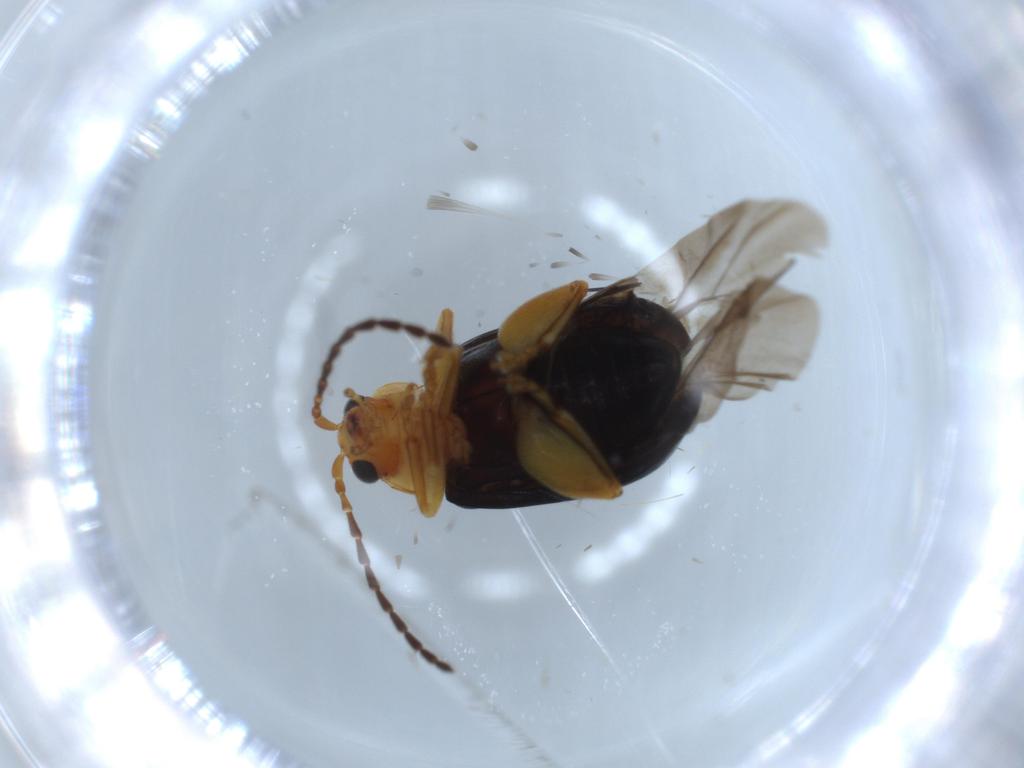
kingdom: Animalia
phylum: Arthropoda
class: Insecta
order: Coleoptera
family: Chrysomelidae
